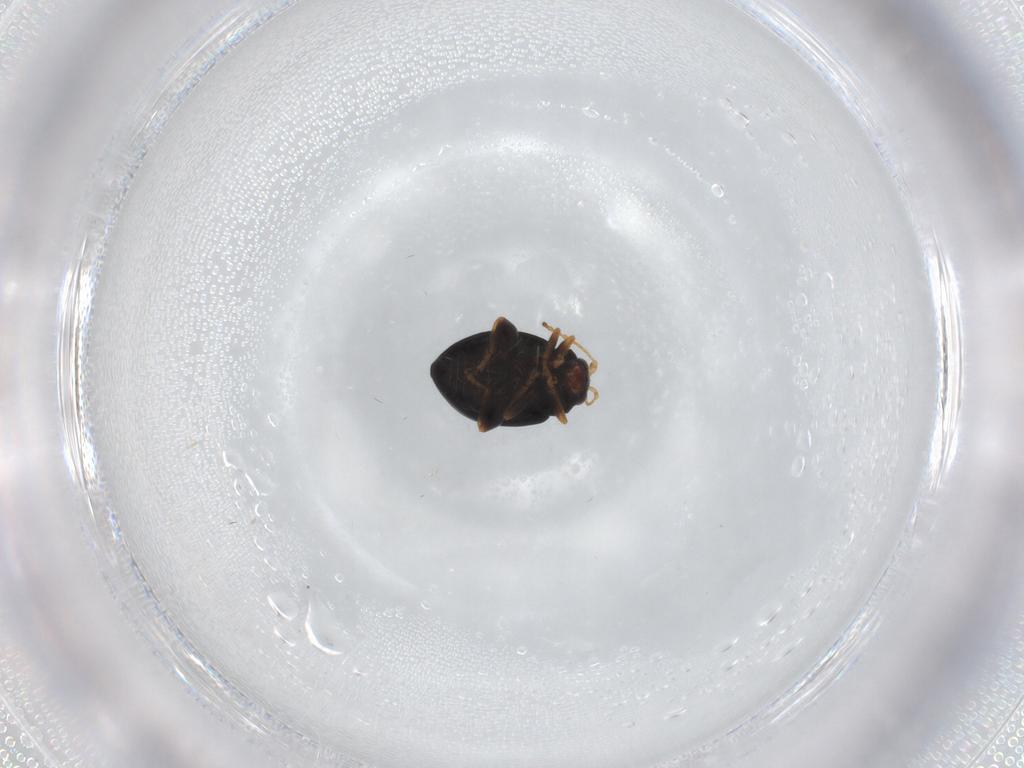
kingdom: Animalia
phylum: Arthropoda
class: Insecta
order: Coleoptera
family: Chrysomelidae
